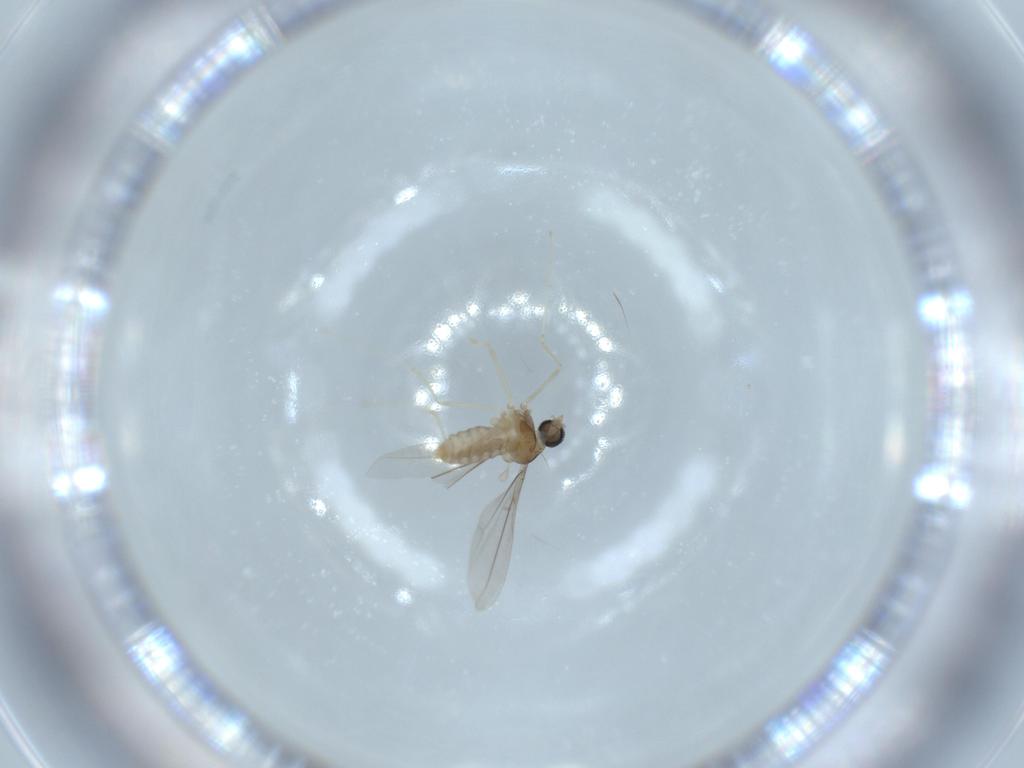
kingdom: Animalia
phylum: Arthropoda
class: Insecta
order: Diptera
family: Cecidomyiidae
